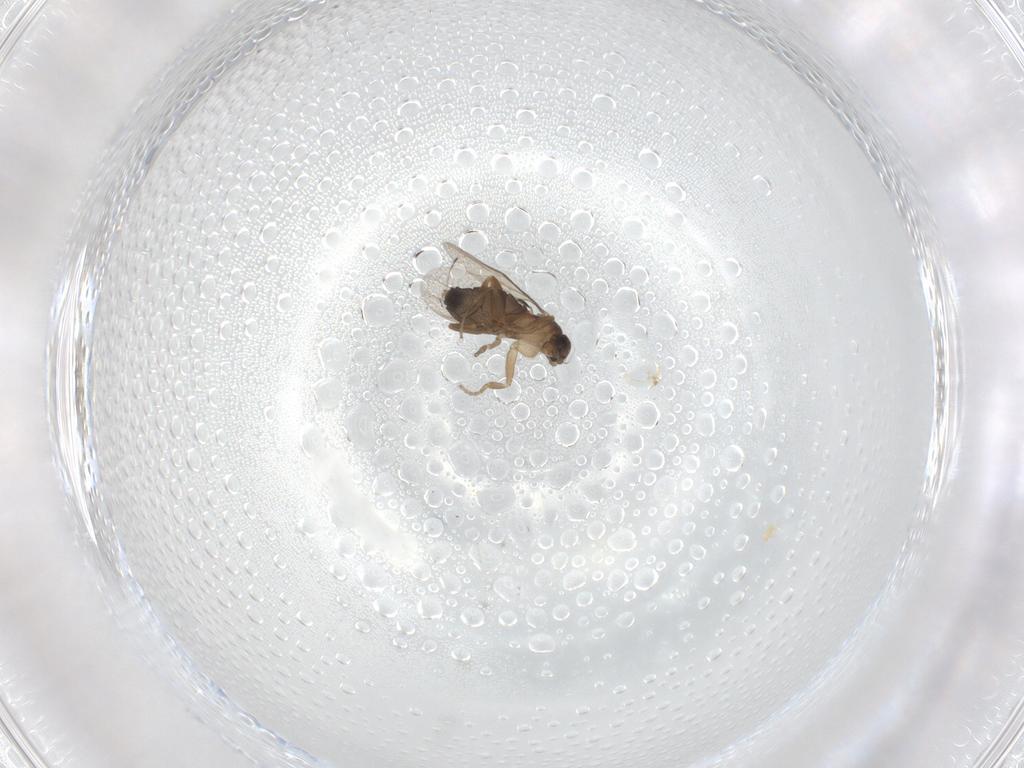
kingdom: Animalia
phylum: Arthropoda
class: Insecta
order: Diptera
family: Phoridae
